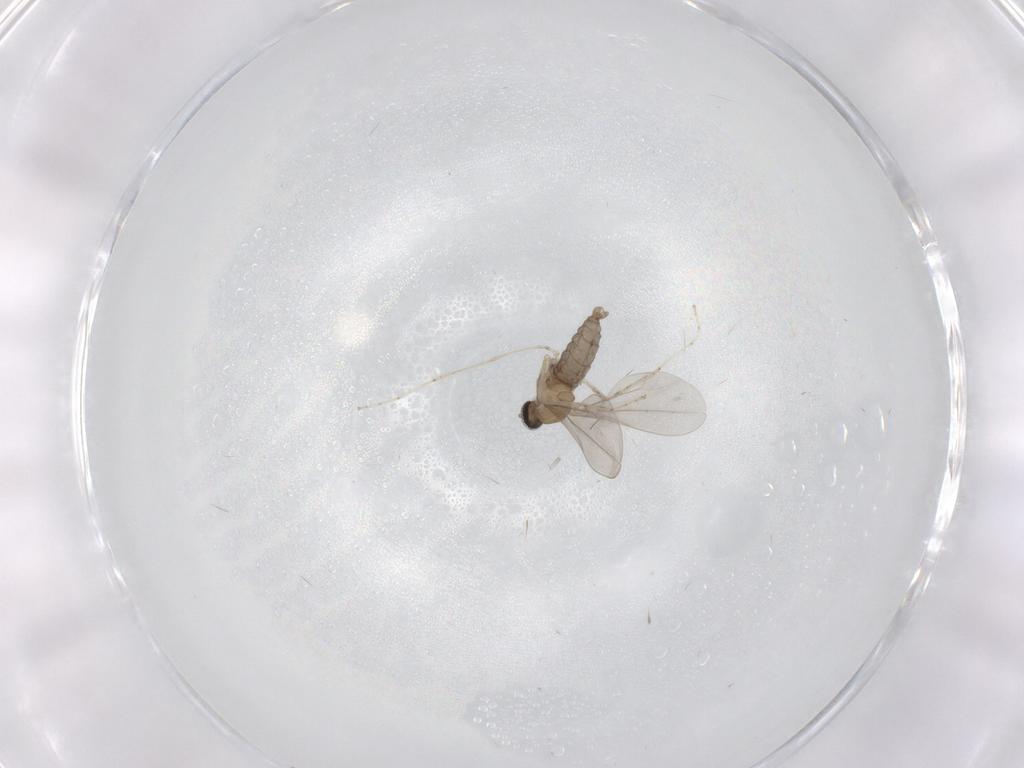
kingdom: Animalia
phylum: Arthropoda
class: Insecta
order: Diptera
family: Cecidomyiidae
